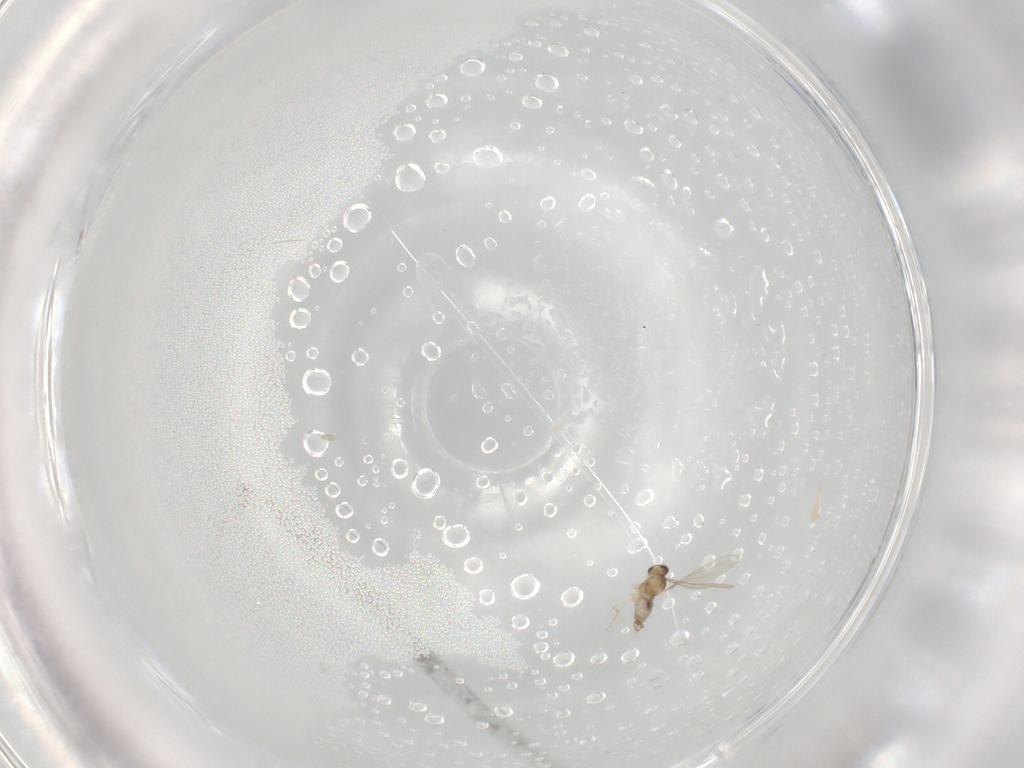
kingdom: Animalia
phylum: Arthropoda
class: Insecta
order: Diptera
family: Cecidomyiidae
